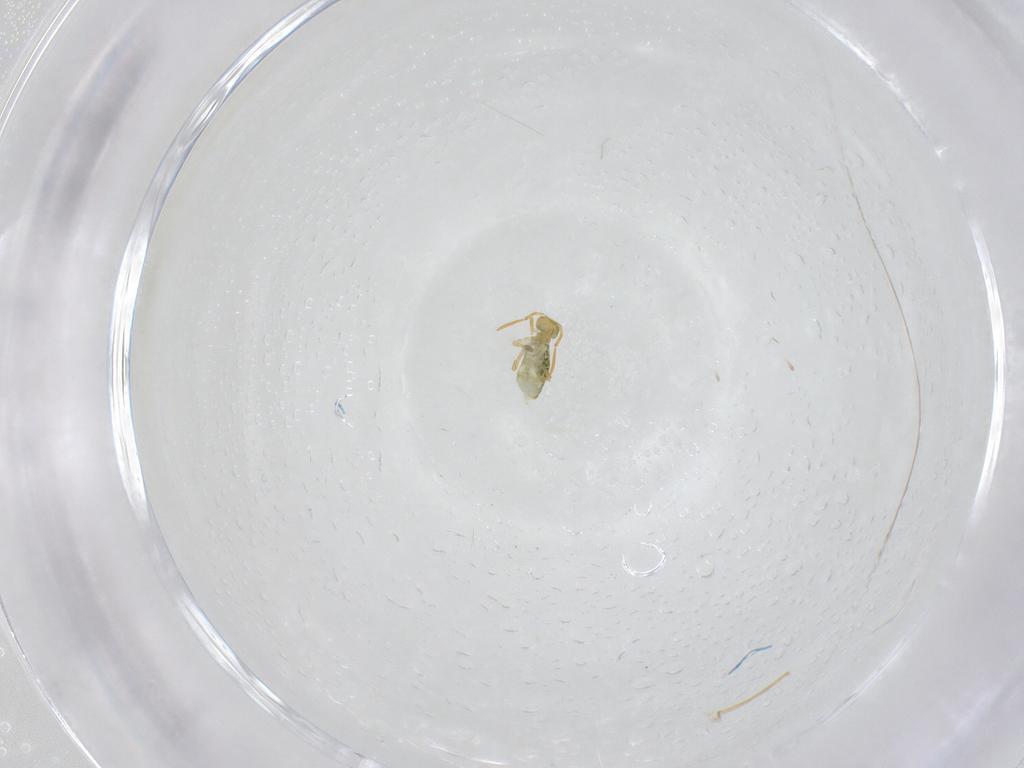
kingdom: Animalia
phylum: Arthropoda
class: Collembola
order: Symphypleona
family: Katiannidae
